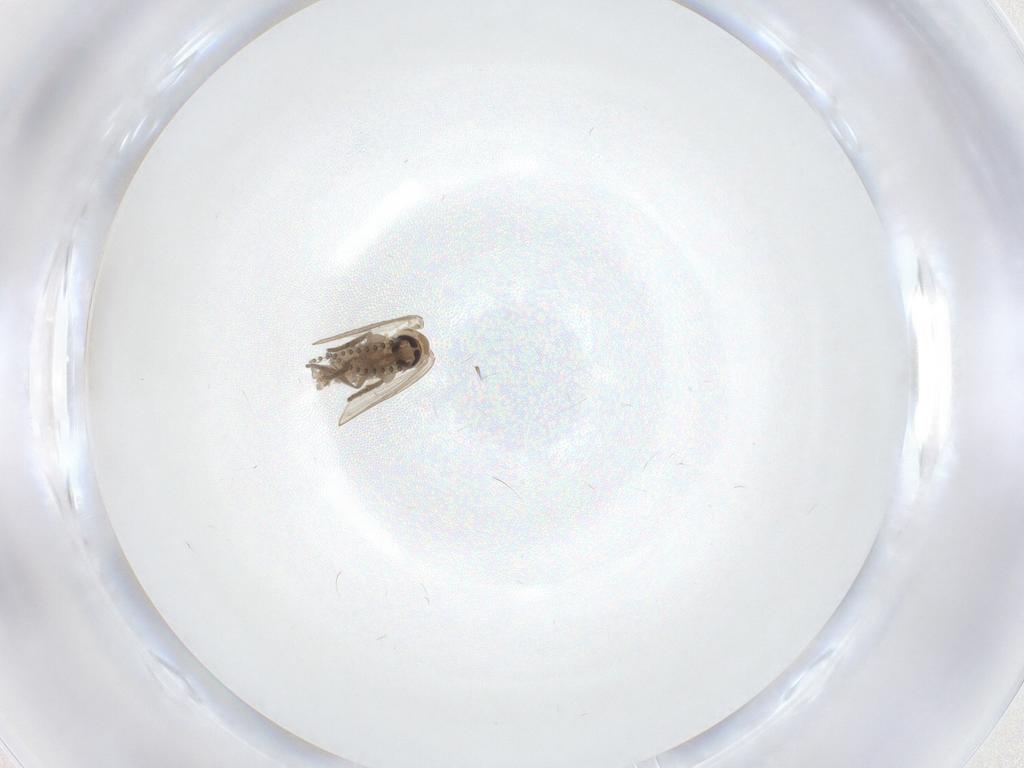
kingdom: Animalia
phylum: Arthropoda
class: Insecta
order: Diptera
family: Psychodidae
